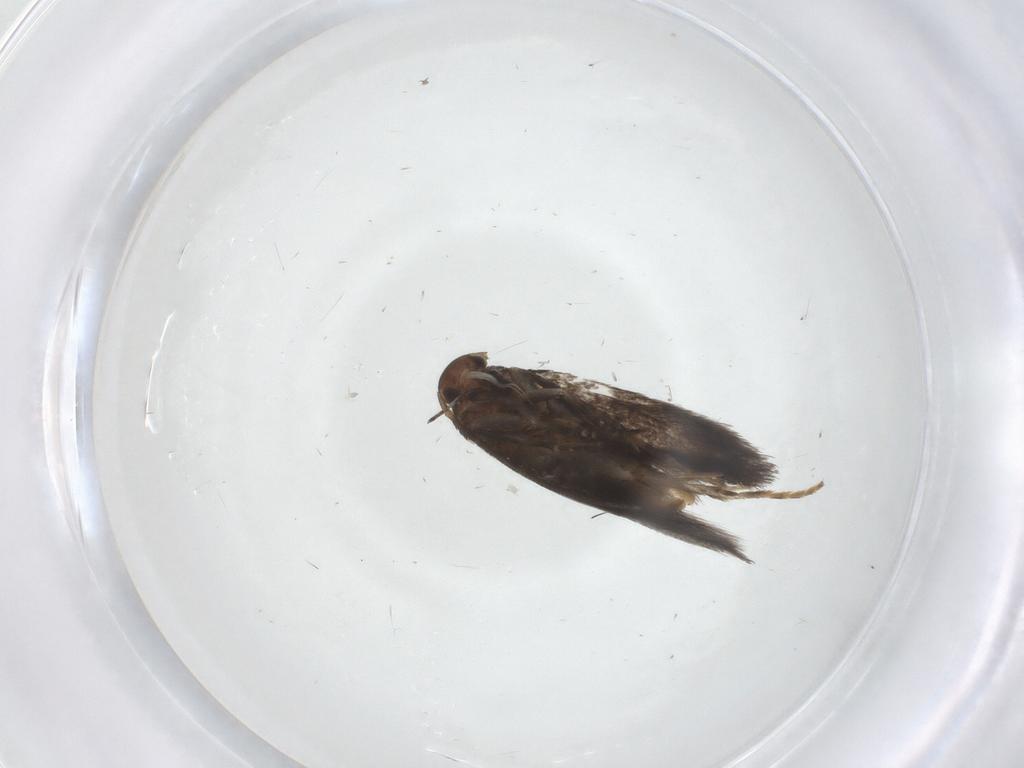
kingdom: Animalia
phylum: Arthropoda
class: Insecta
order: Lepidoptera
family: Elachistidae
